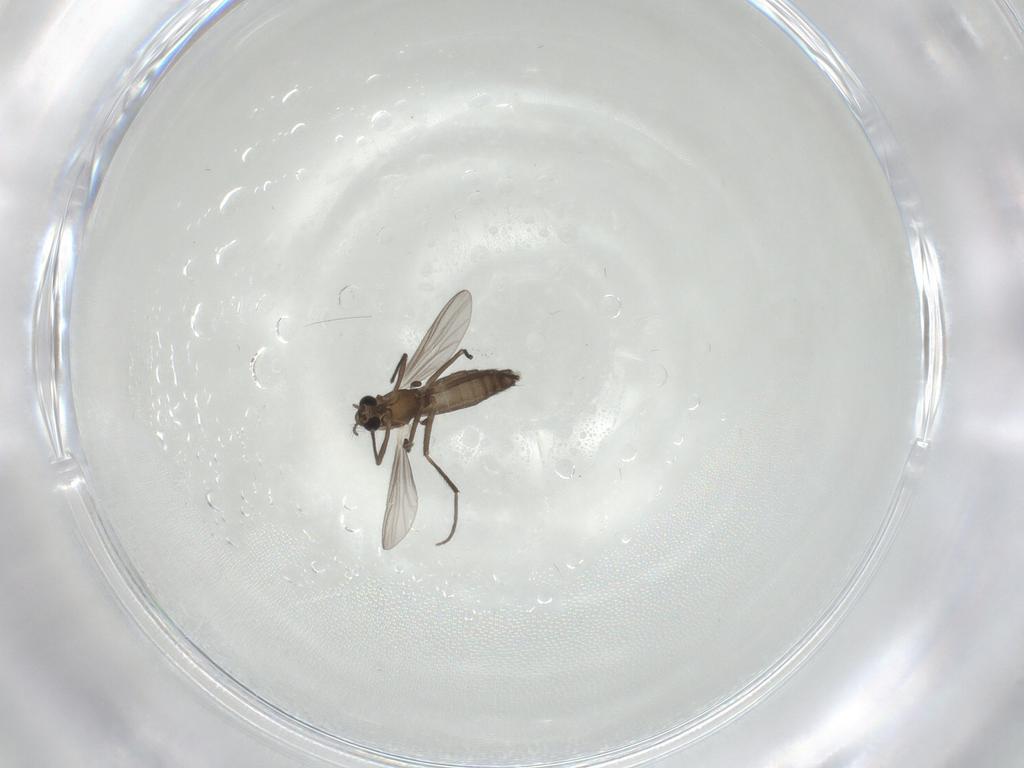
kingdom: Animalia
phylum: Arthropoda
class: Insecta
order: Diptera
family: Chironomidae
